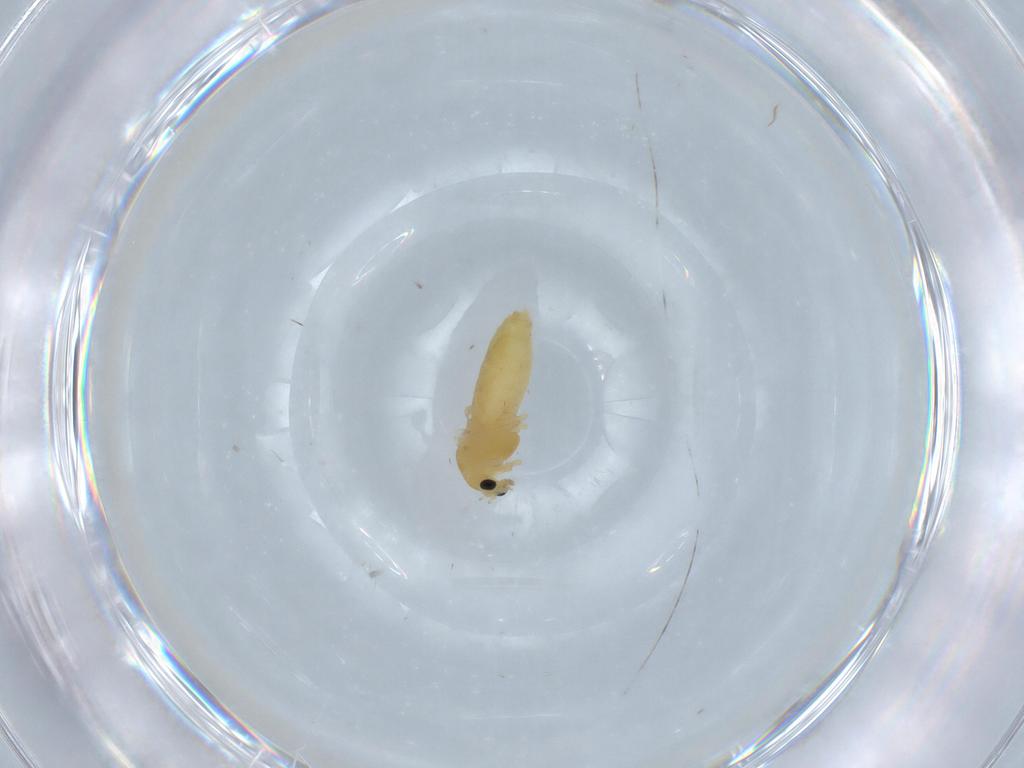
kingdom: Animalia
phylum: Arthropoda
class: Insecta
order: Diptera
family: Chironomidae
